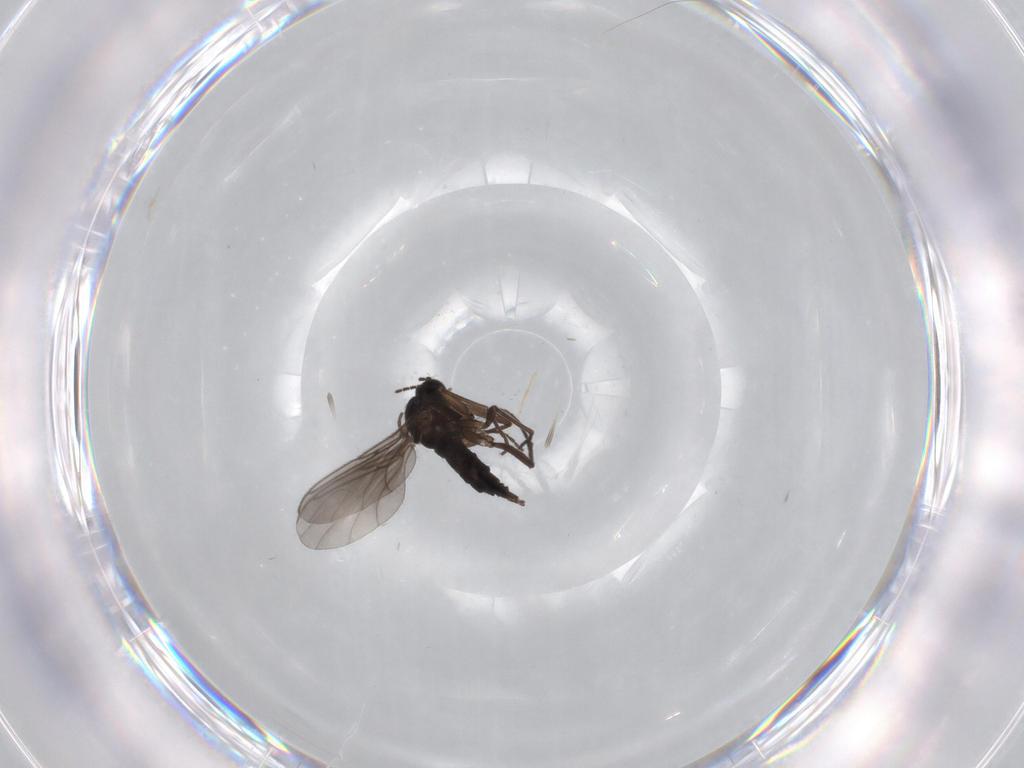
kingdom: Animalia
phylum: Arthropoda
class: Insecta
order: Diptera
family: Sciaridae
